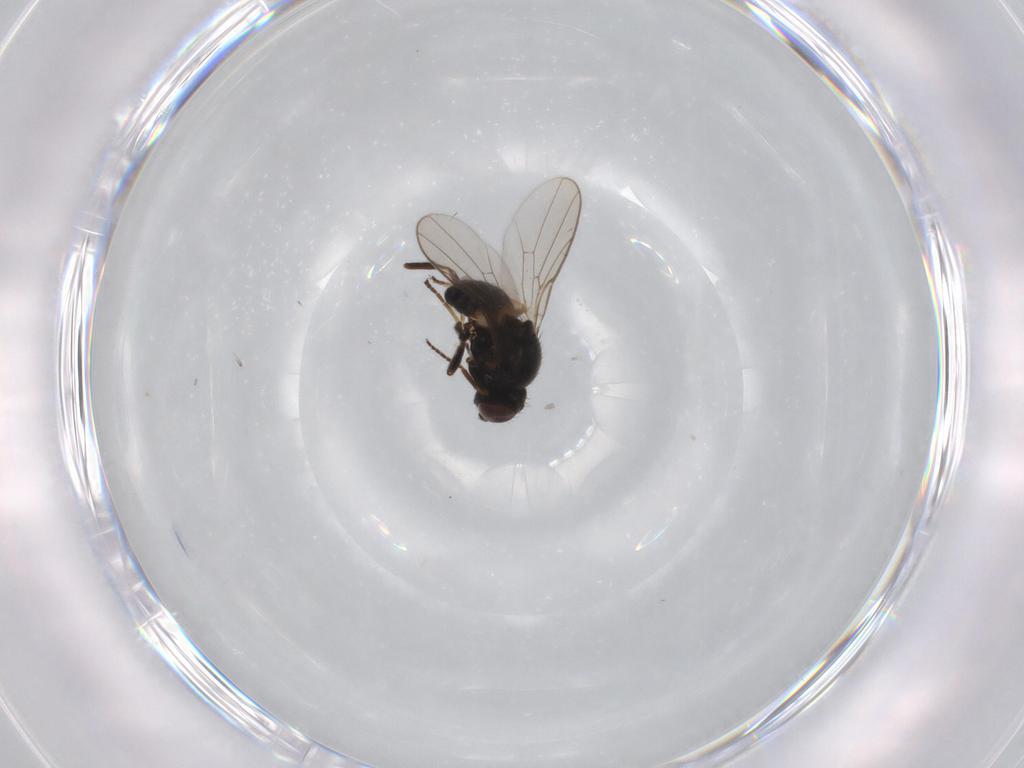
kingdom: Animalia
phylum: Arthropoda
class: Insecta
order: Diptera
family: Chloropidae
